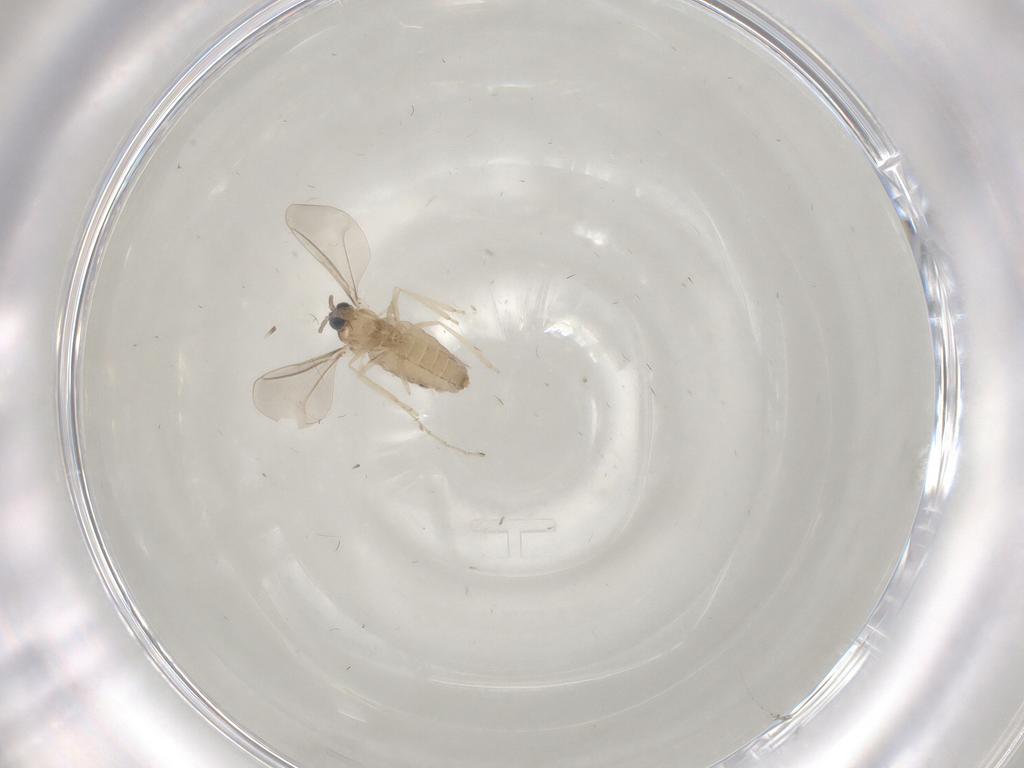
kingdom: Animalia
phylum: Arthropoda
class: Insecta
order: Diptera
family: Cecidomyiidae
